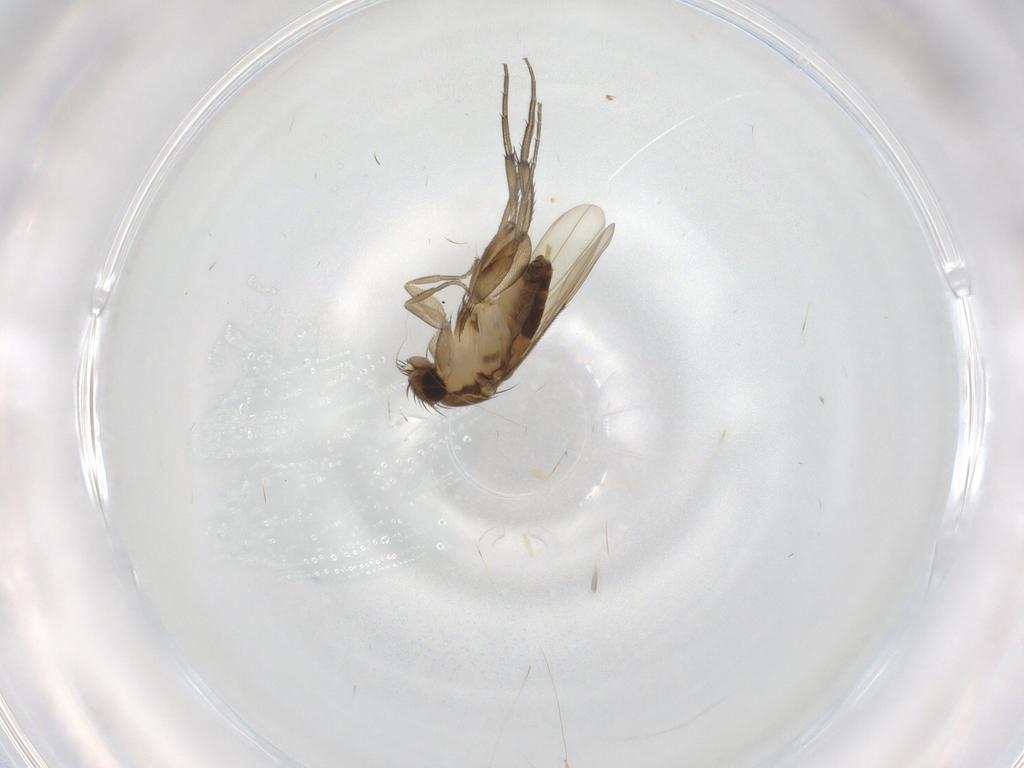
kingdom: Animalia
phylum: Arthropoda
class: Insecta
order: Diptera
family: Phoridae
